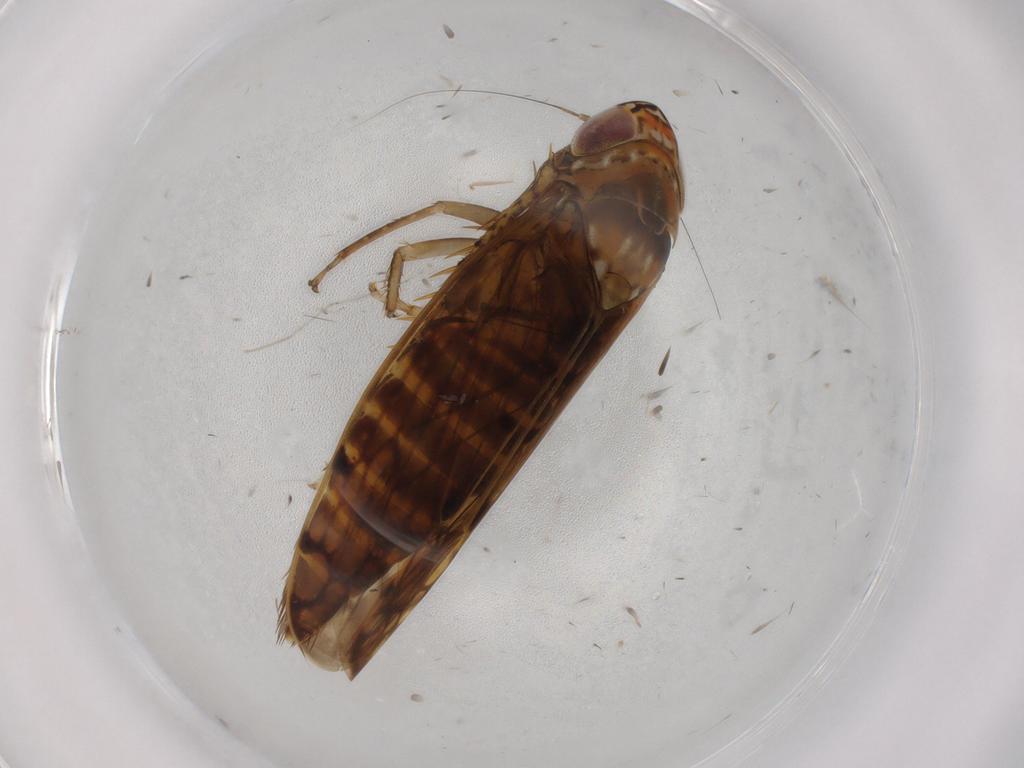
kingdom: Animalia
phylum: Arthropoda
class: Insecta
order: Hemiptera
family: Cicadellidae
